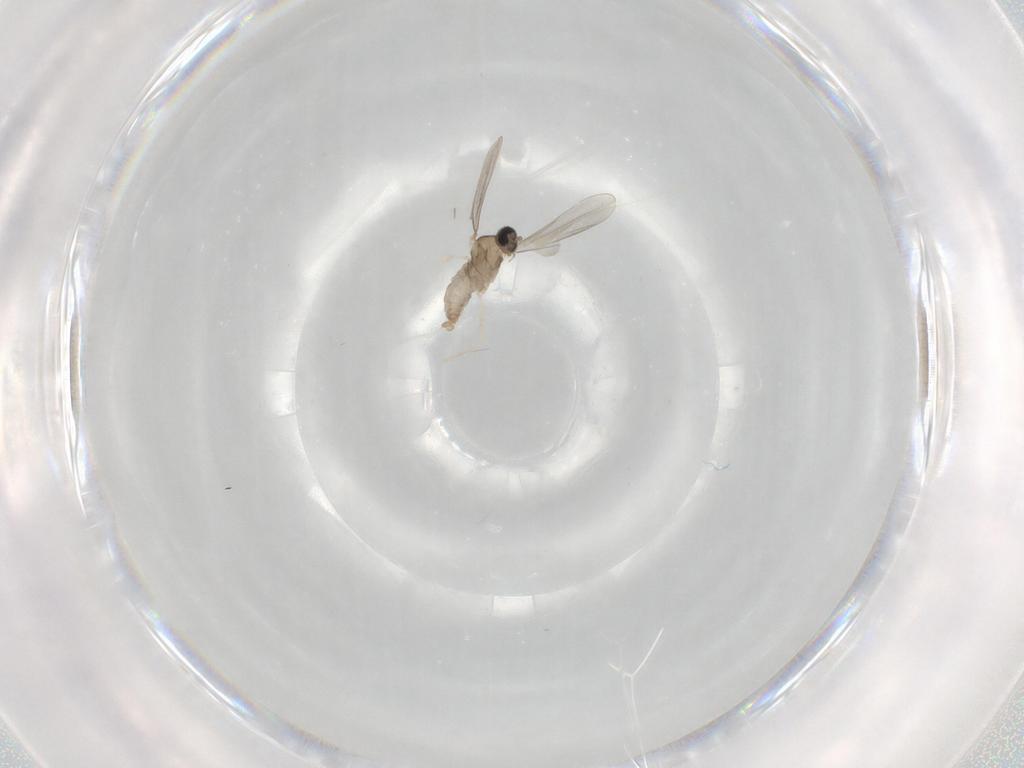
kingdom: Animalia
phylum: Arthropoda
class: Insecta
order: Diptera
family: Cecidomyiidae
